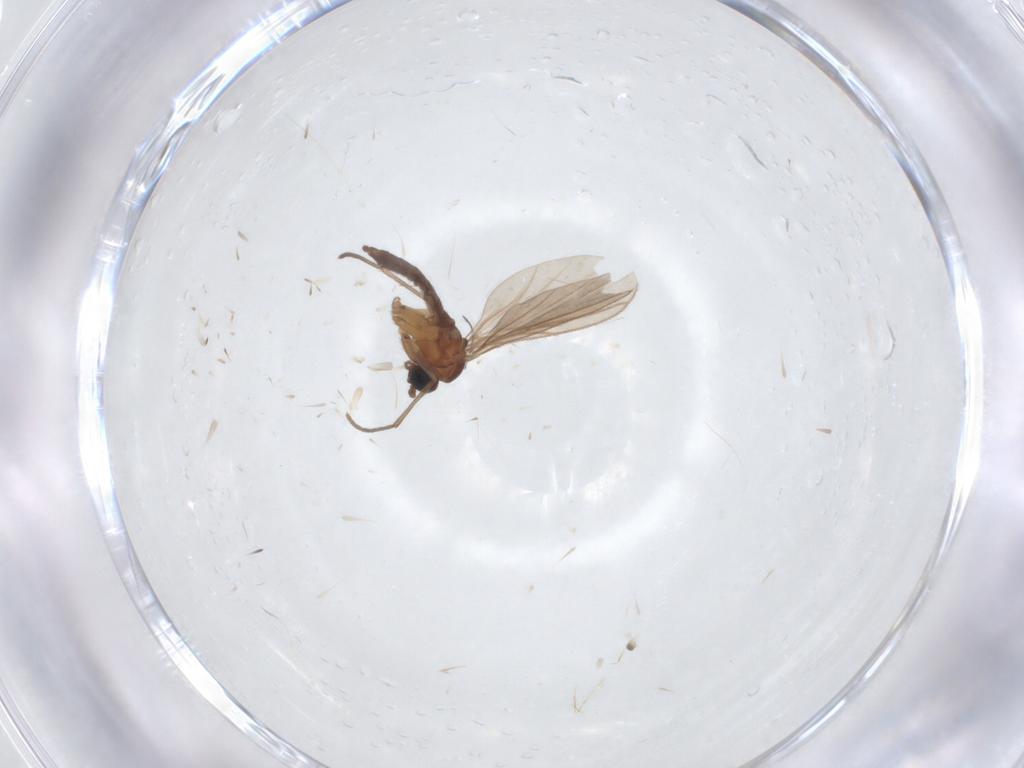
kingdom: Animalia
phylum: Arthropoda
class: Insecta
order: Diptera
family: Sciaridae
